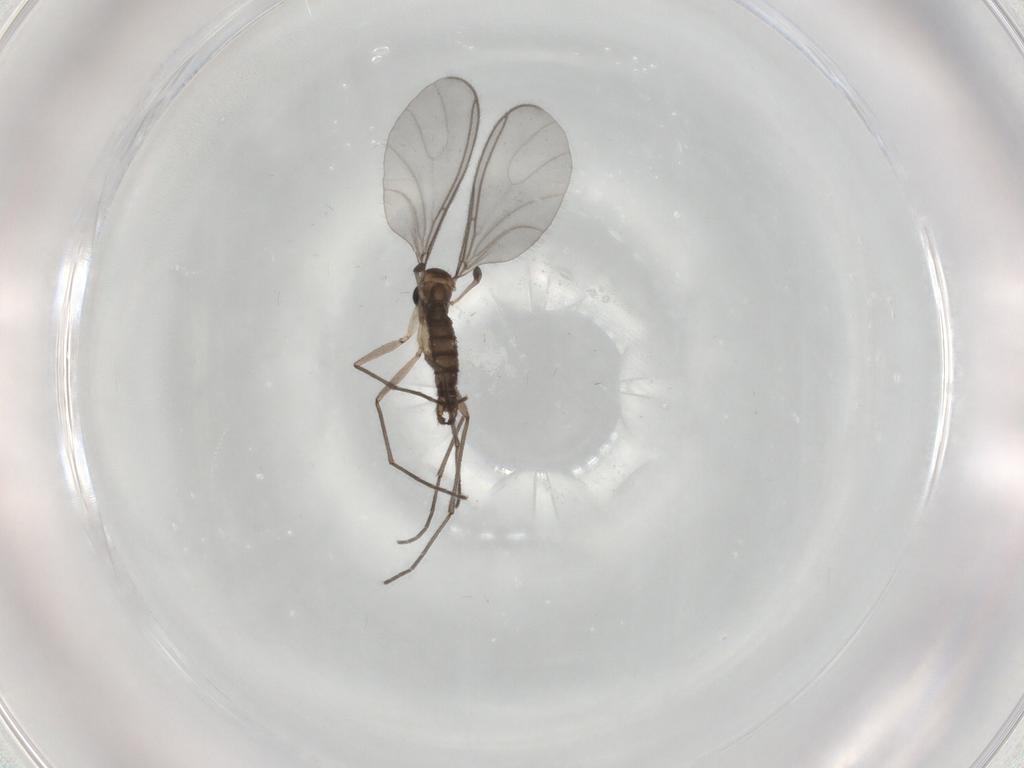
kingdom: Animalia
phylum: Arthropoda
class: Insecta
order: Diptera
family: Sciaridae
